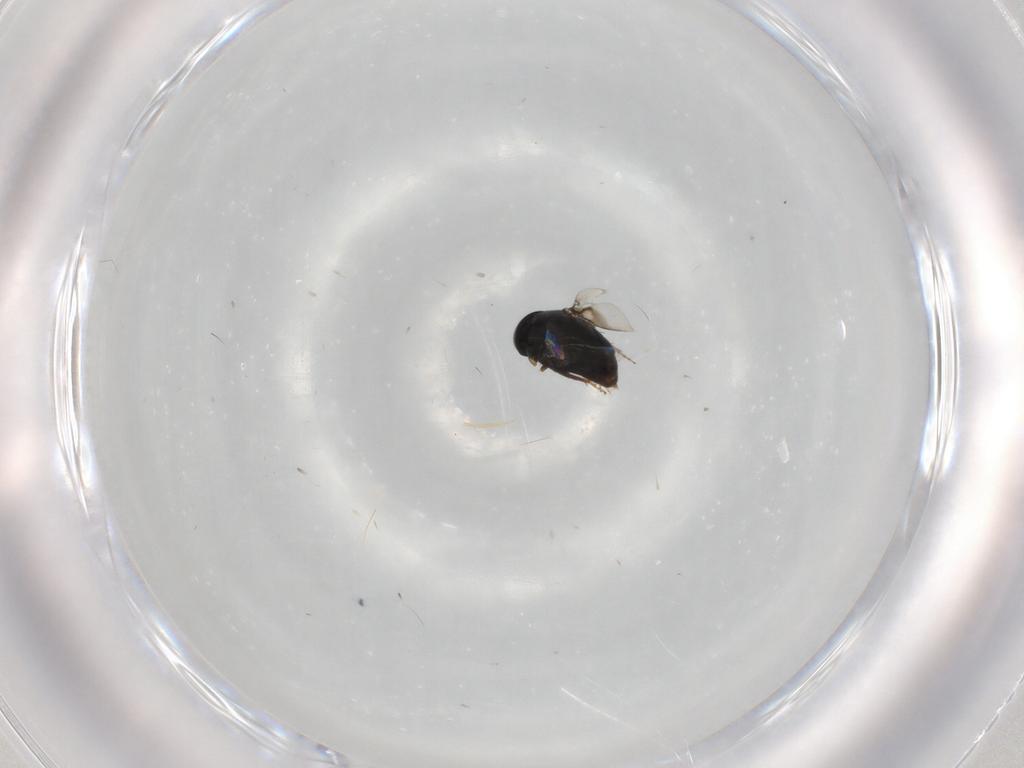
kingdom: Animalia
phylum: Arthropoda
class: Insecta
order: Hymenoptera
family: Signiphoridae
